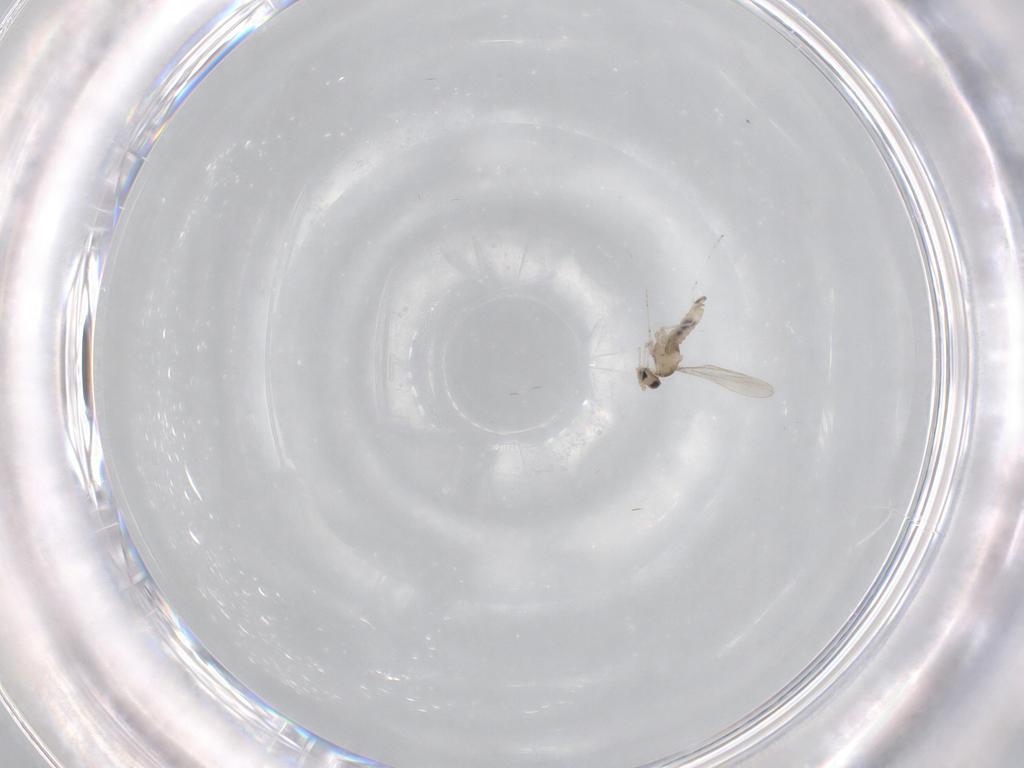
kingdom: Animalia
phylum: Arthropoda
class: Insecta
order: Diptera
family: Cecidomyiidae
